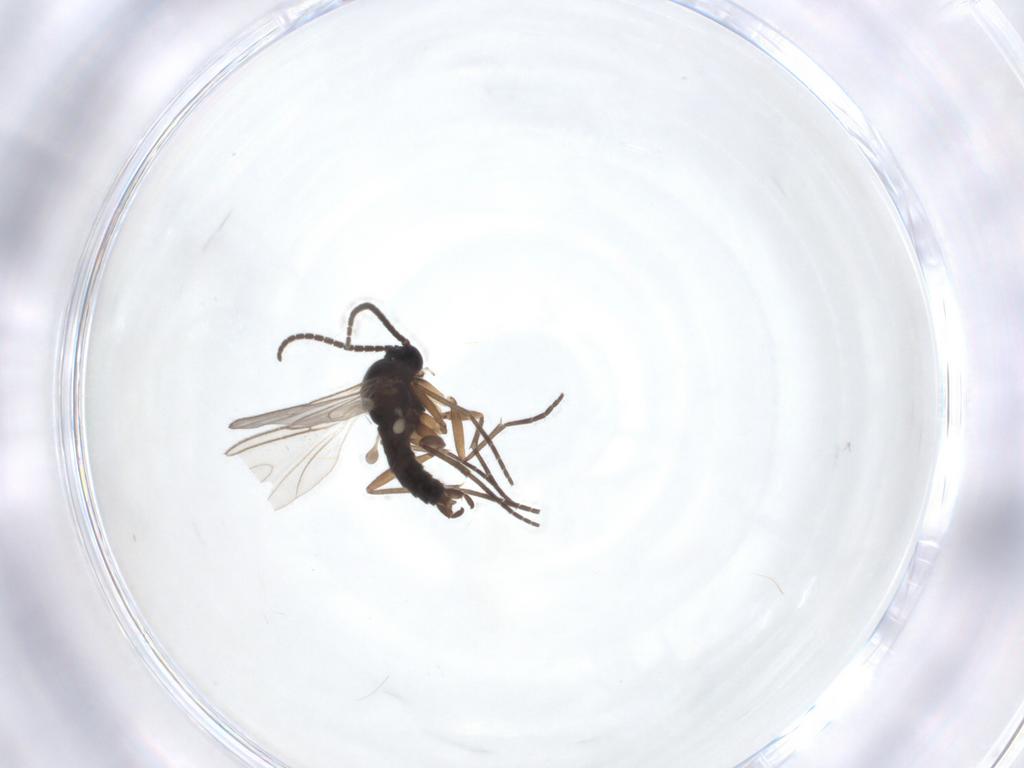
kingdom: Animalia
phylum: Arthropoda
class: Insecta
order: Diptera
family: Sciaridae
